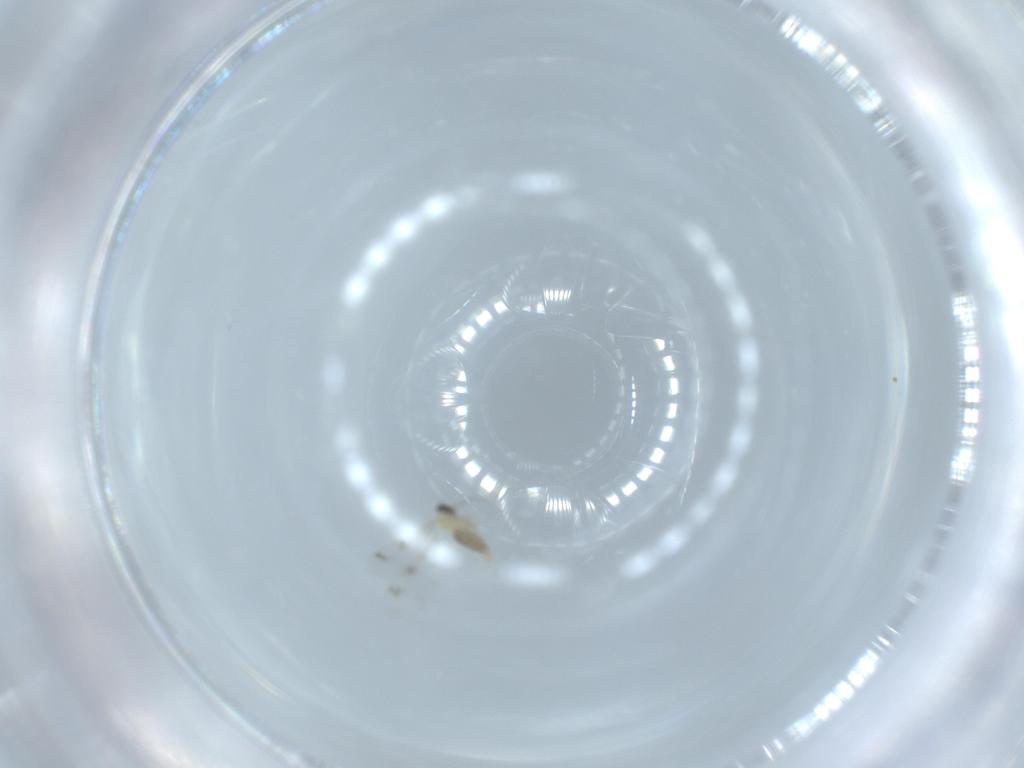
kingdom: Animalia
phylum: Arthropoda
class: Insecta
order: Diptera
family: Cecidomyiidae
